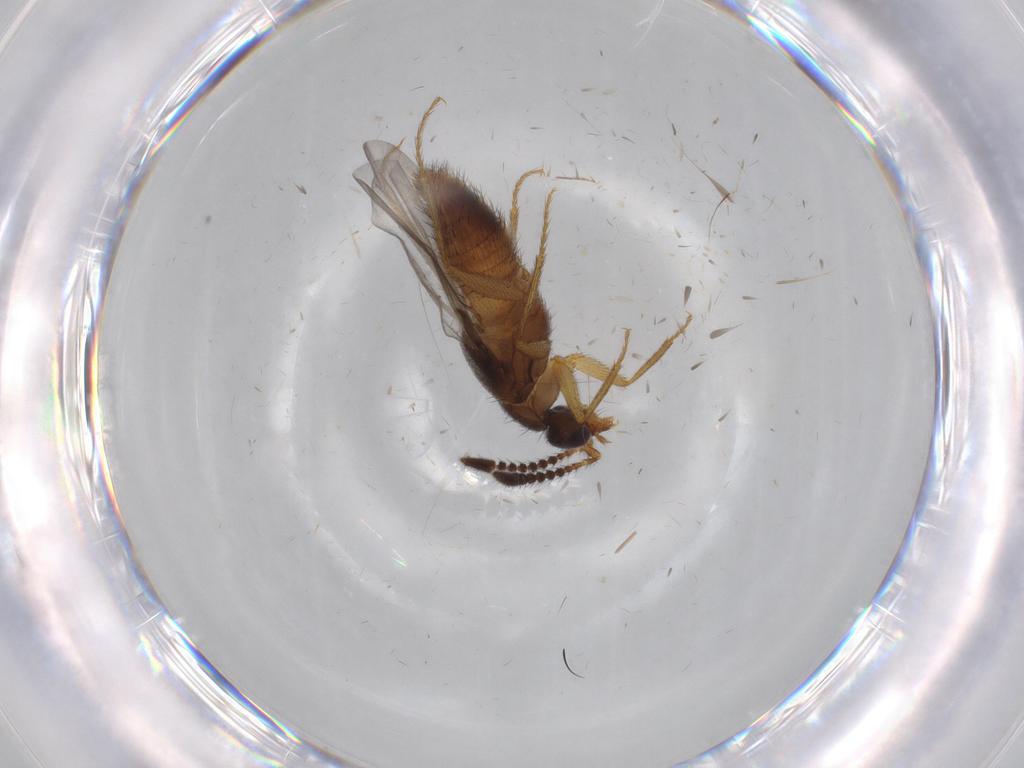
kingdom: Animalia
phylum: Arthropoda
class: Insecta
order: Coleoptera
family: Staphylinidae
